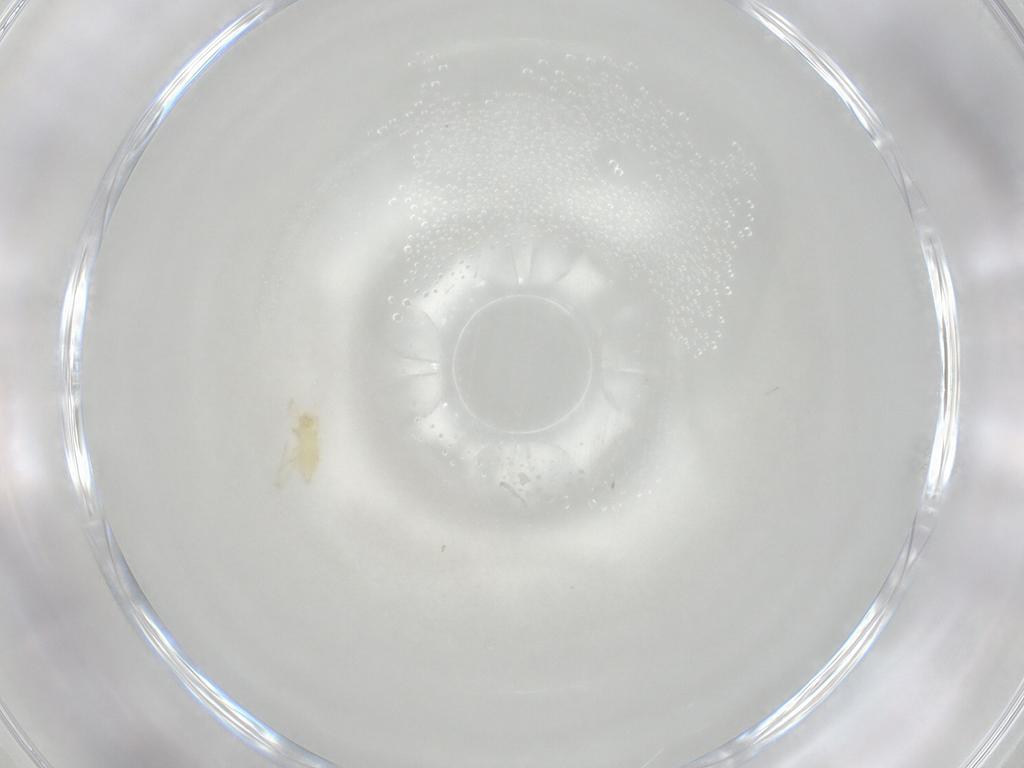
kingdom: Animalia
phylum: Arthropoda
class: Arachnida
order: Trombidiformes
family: Erythraeidae
